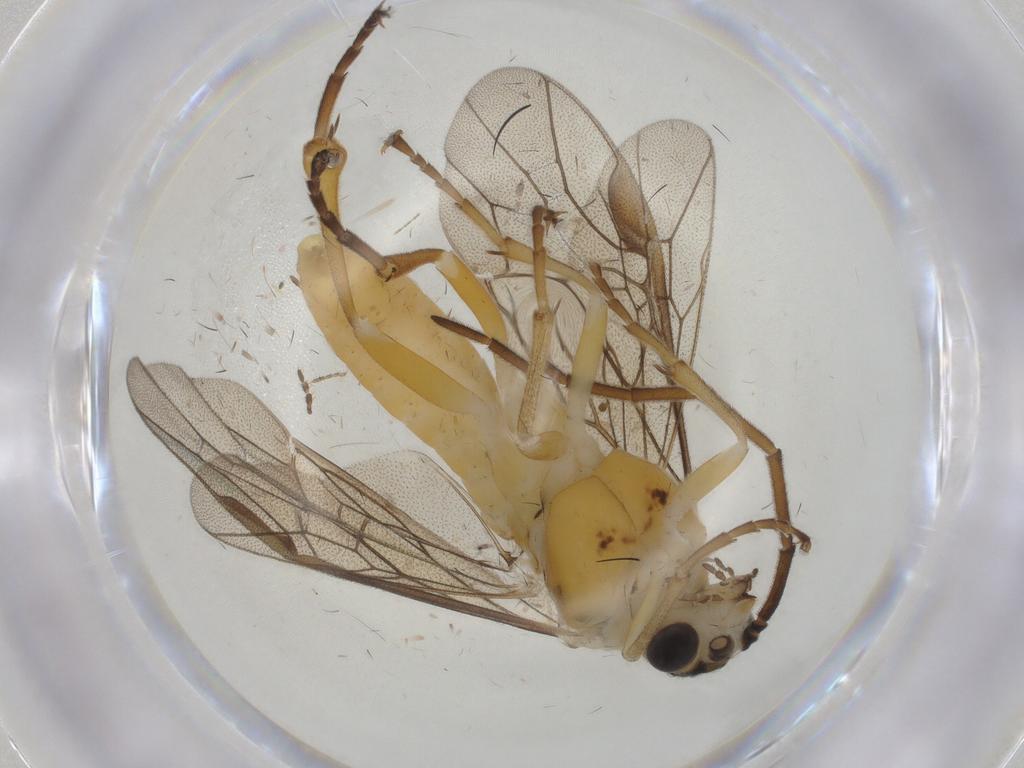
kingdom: Animalia
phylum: Arthropoda
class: Insecta
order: Hymenoptera
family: Tenthredinidae
